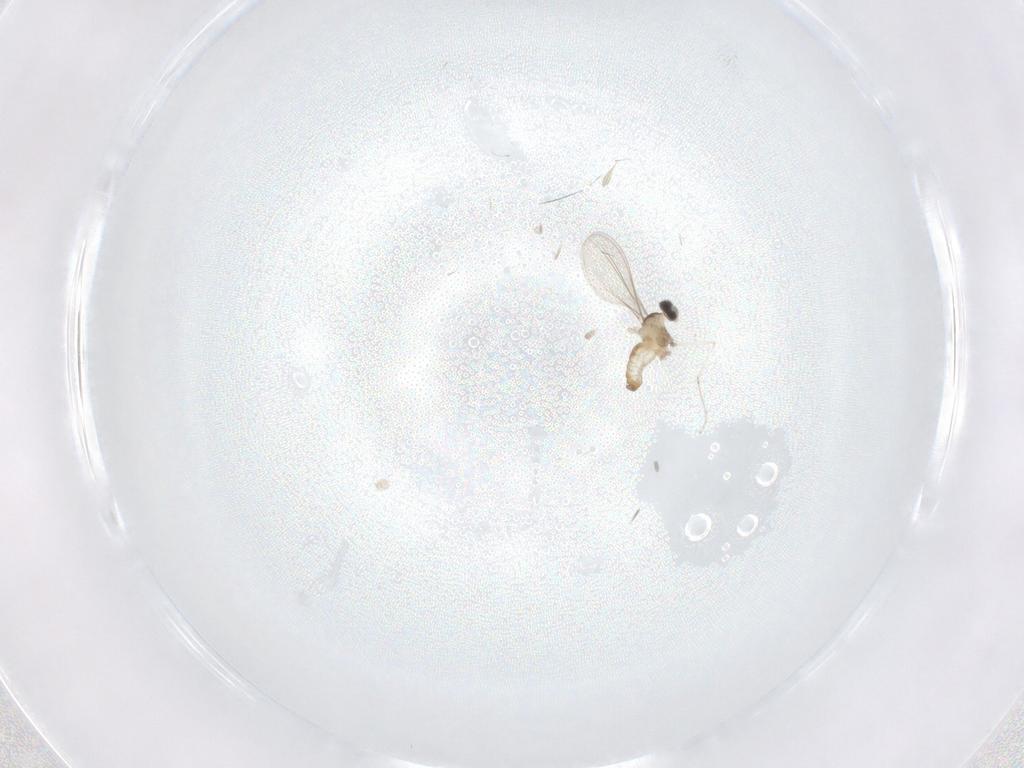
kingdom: Animalia
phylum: Arthropoda
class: Insecta
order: Diptera
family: Cecidomyiidae
